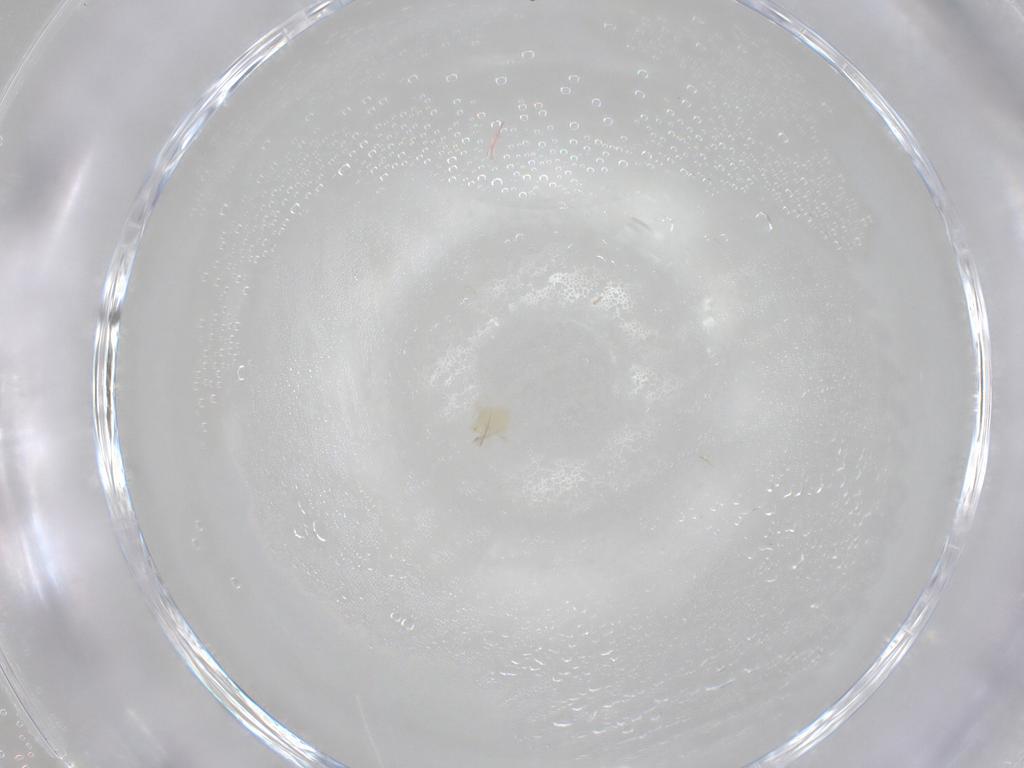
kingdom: Animalia
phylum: Arthropoda
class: Arachnida
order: Trombidiformes
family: Anystidae
